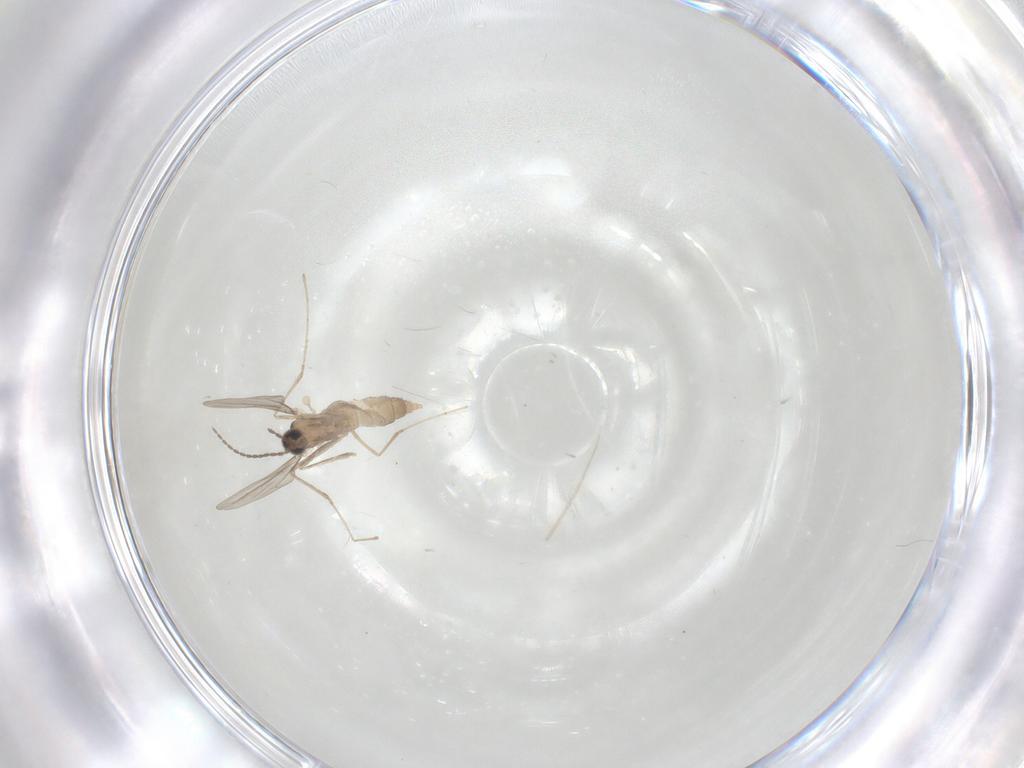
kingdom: Animalia
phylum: Arthropoda
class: Insecta
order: Diptera
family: Cecidomyiidae
